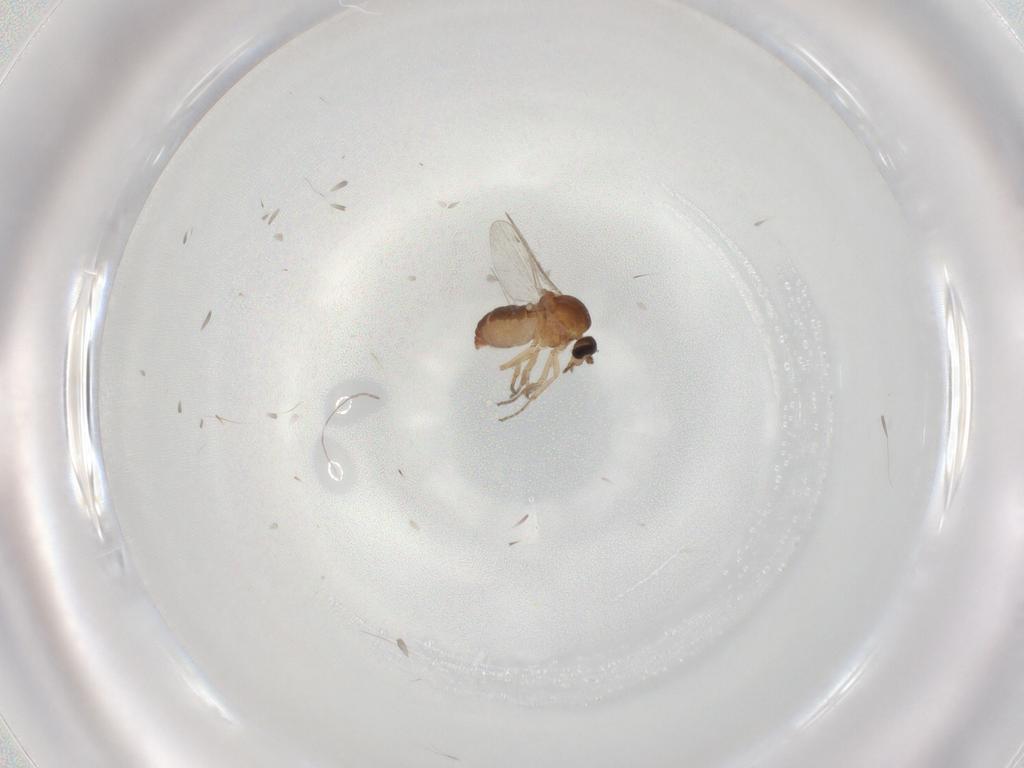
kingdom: Animalia
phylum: Arthropoda
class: Insecta
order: Diptera
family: Ceratopogonidae
